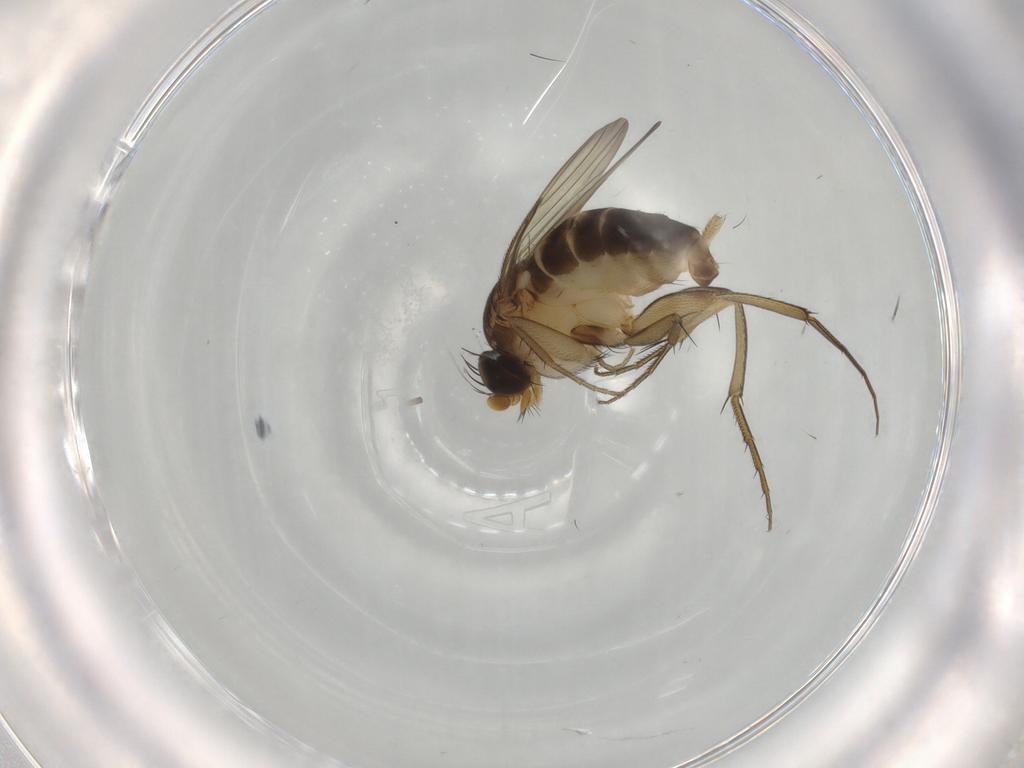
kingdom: Animalia
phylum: Arthropoda
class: Insecta
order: Diptera
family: Phoridae
